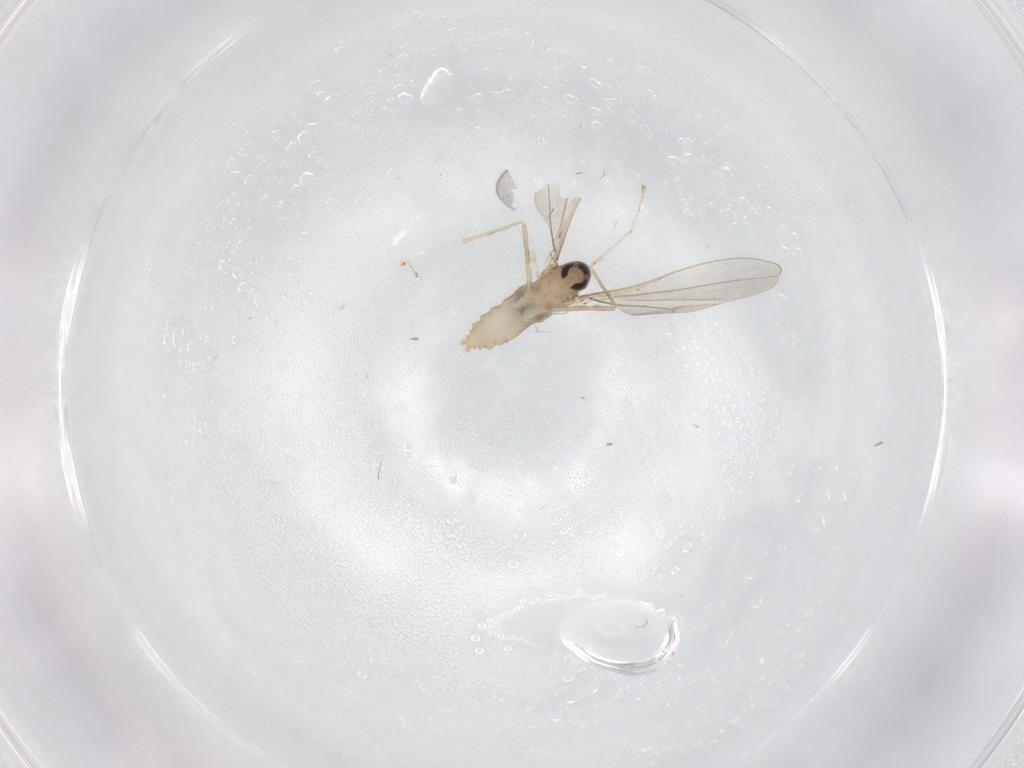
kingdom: Animalia
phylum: Arthropoda
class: Insecta
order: Diptera
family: Cecidomyiidae
